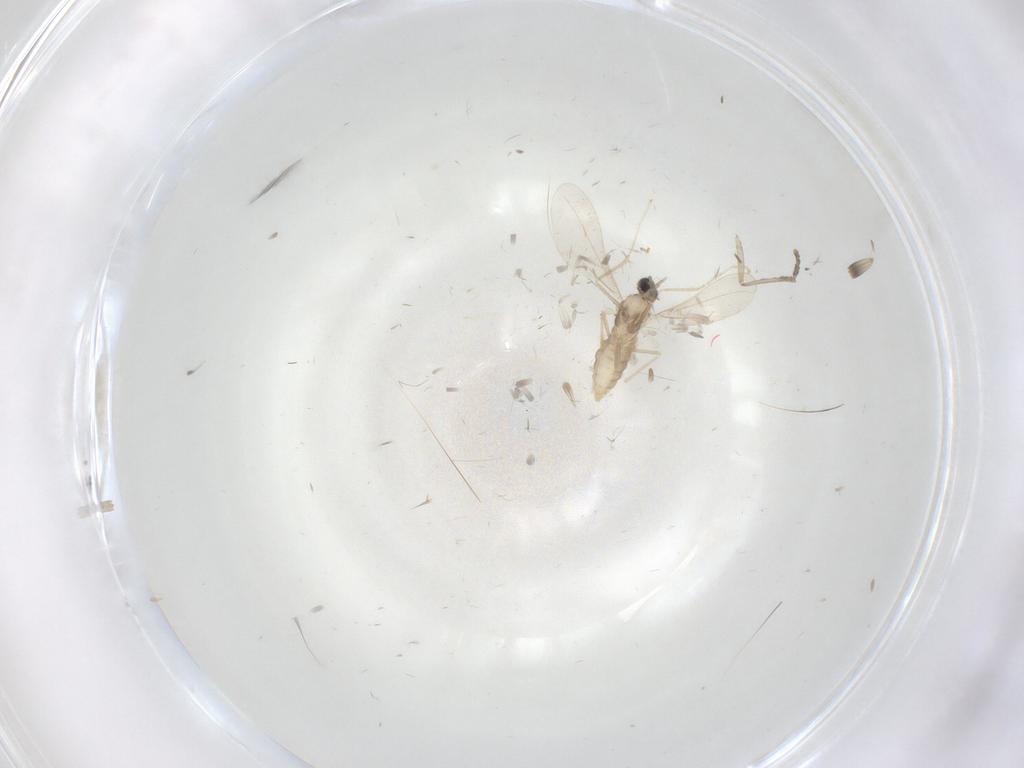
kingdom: Animalia
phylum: Arthropoda
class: Insecta
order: Diptera
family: Cecidomyiidae
